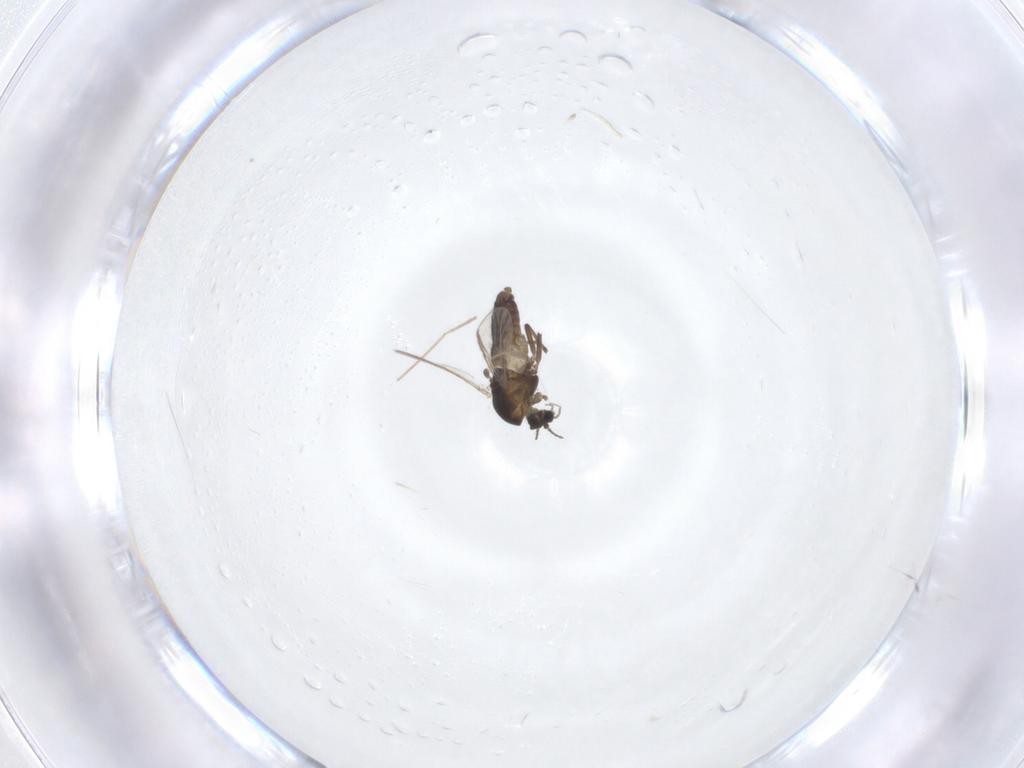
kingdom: Animalia
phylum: Arthropoda
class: Insecta
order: Diptera
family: Chironomidae
